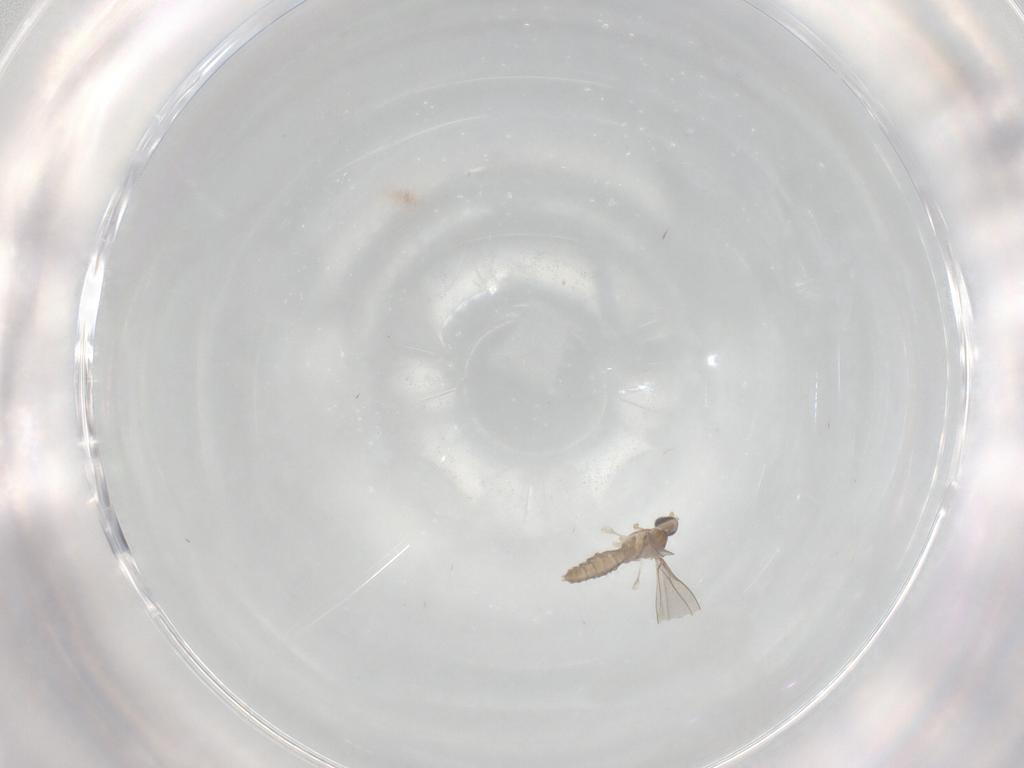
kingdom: Animalia
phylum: Arthropoda
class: Insecta
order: Diptera
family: Cecidomyiidae
